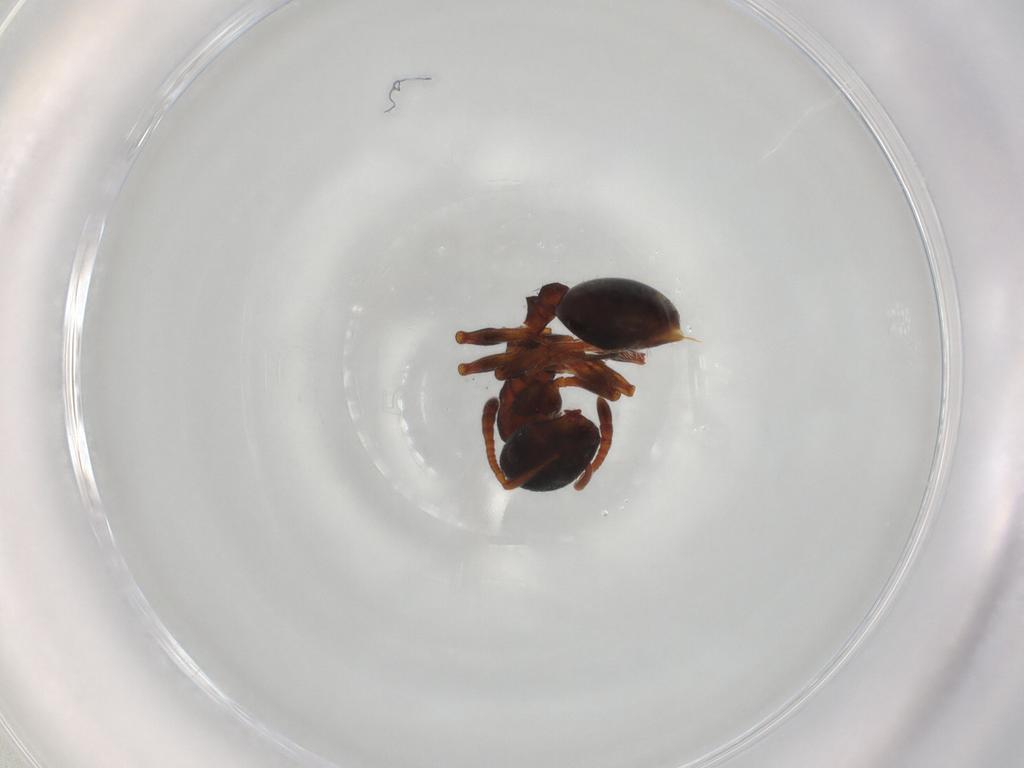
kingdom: Animalia
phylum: Arthropoda
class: Insecta
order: Hymenoptera
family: Formicidae
